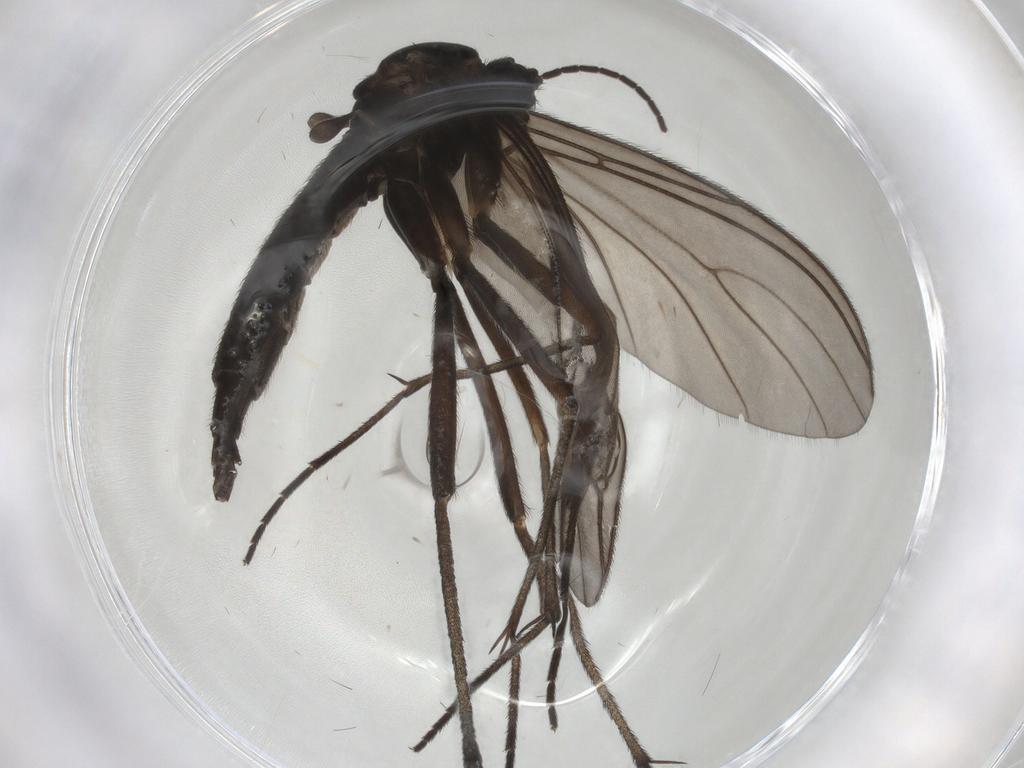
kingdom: Animalia
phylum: Arthropoda
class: Insecta
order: Diptera
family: Sciaridae
